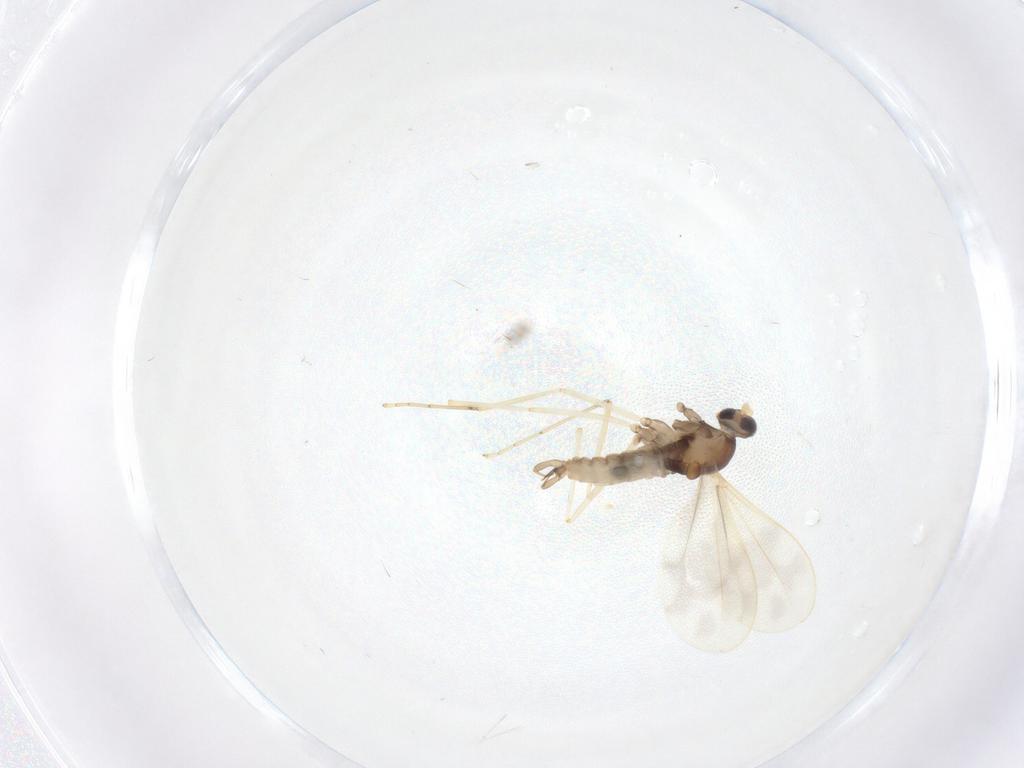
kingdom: Animalia
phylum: Arthropoda
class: Insecta
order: Diptera
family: Cecidomyiidae
